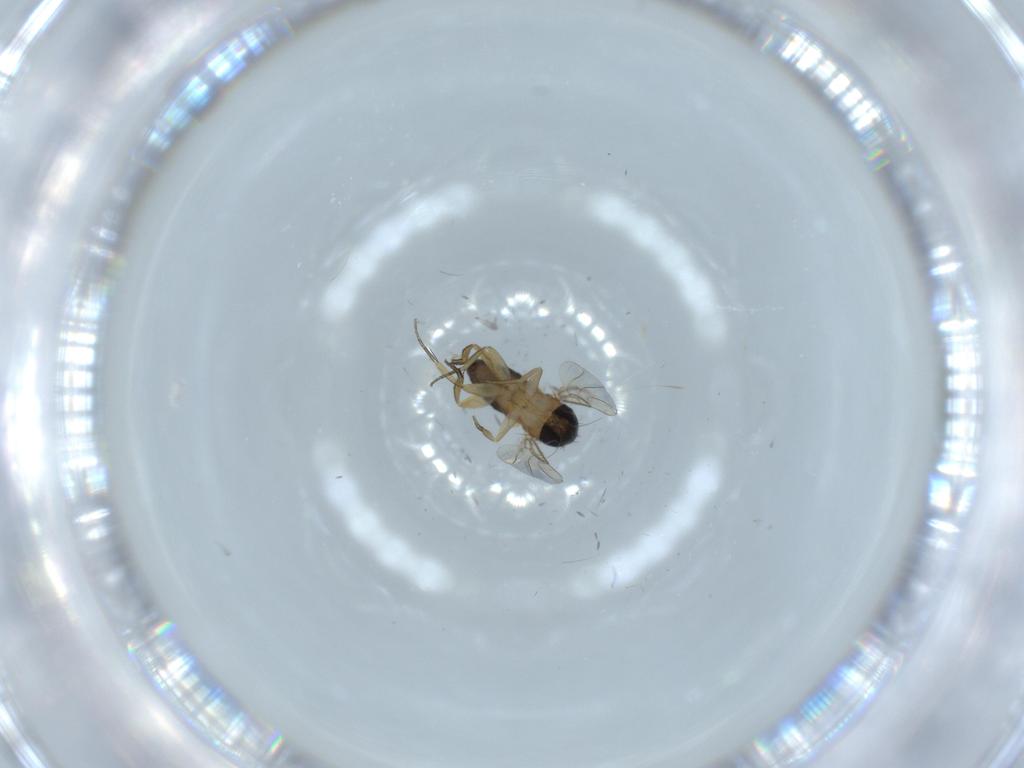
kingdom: Animalia
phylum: Arthropoda
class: Insecta
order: Diptera
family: Phoridae
